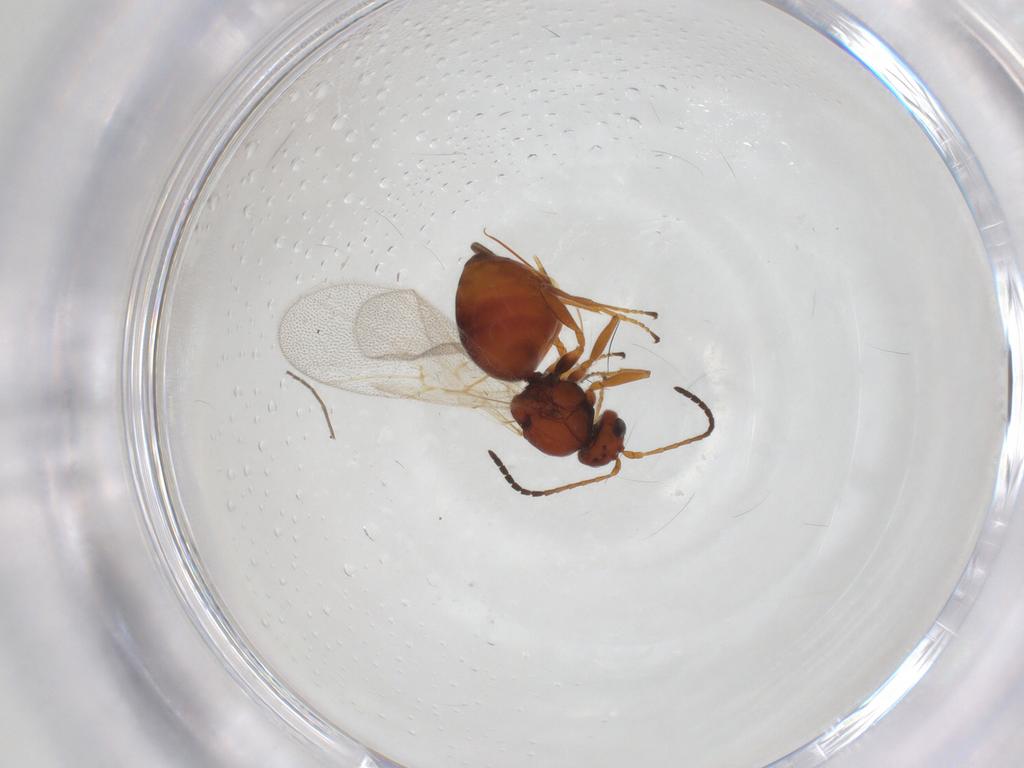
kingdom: Animalia
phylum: Arthropoda
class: Insecta
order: Hymenoptera
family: Cynipidae
